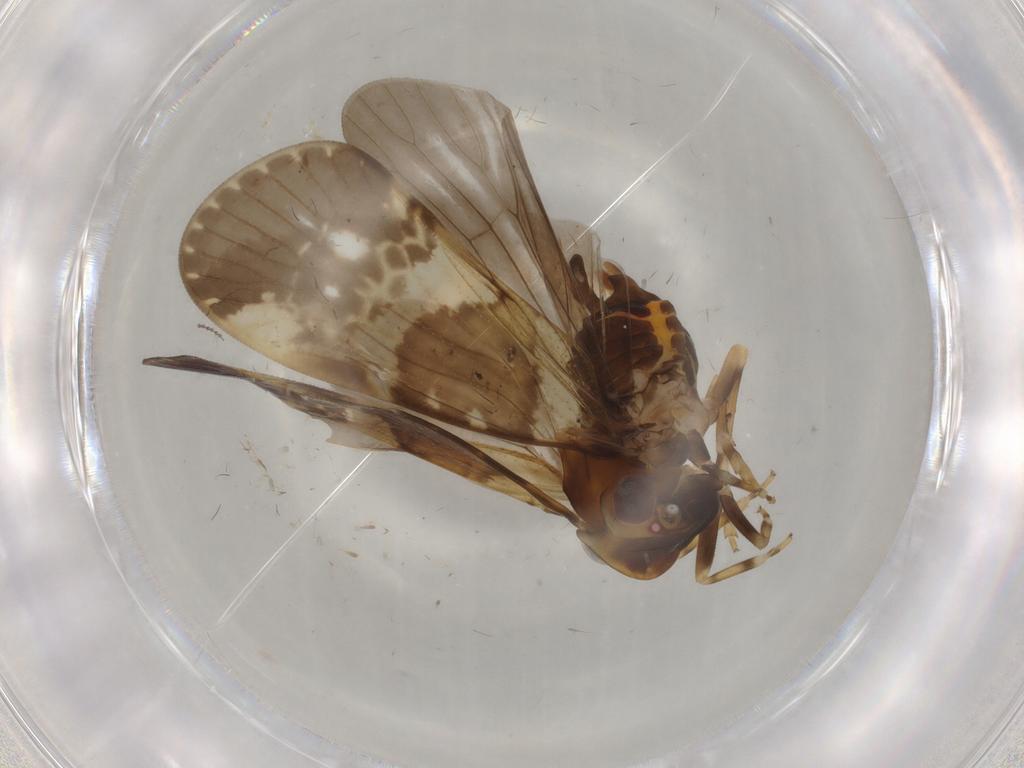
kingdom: Animalia
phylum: Arthropoda
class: Insecta
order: Hemiptera
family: Cixiidae
